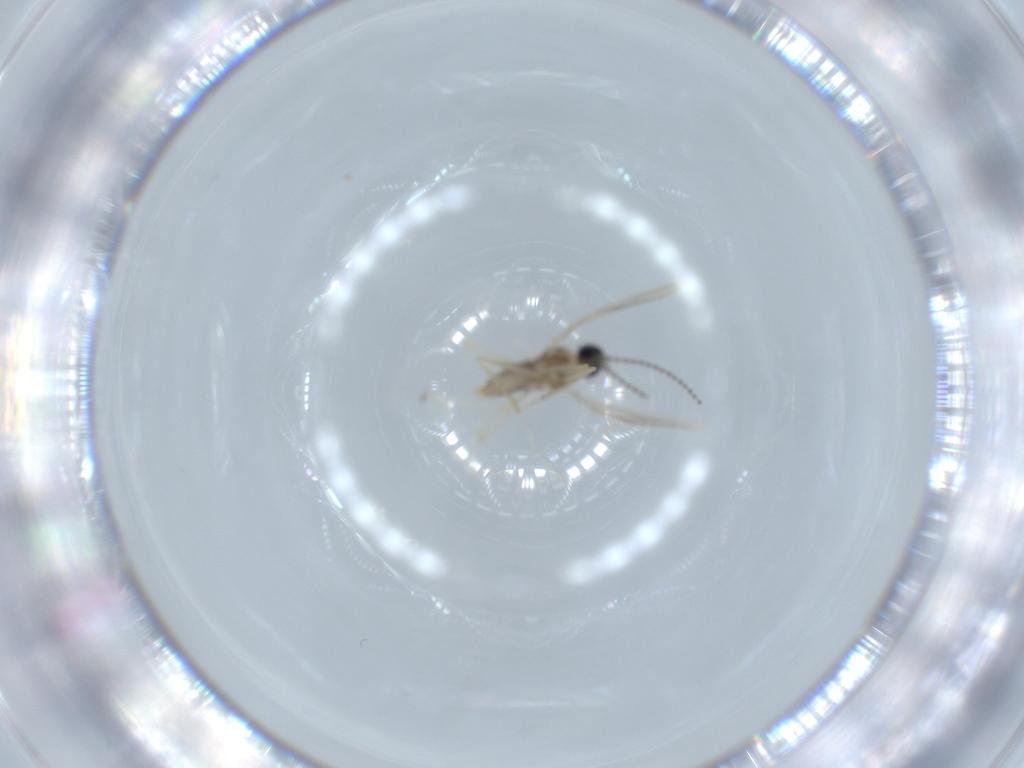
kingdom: Animalia
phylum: Arthropoda
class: Insecta
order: Diptera
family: Cecidomyiidae
